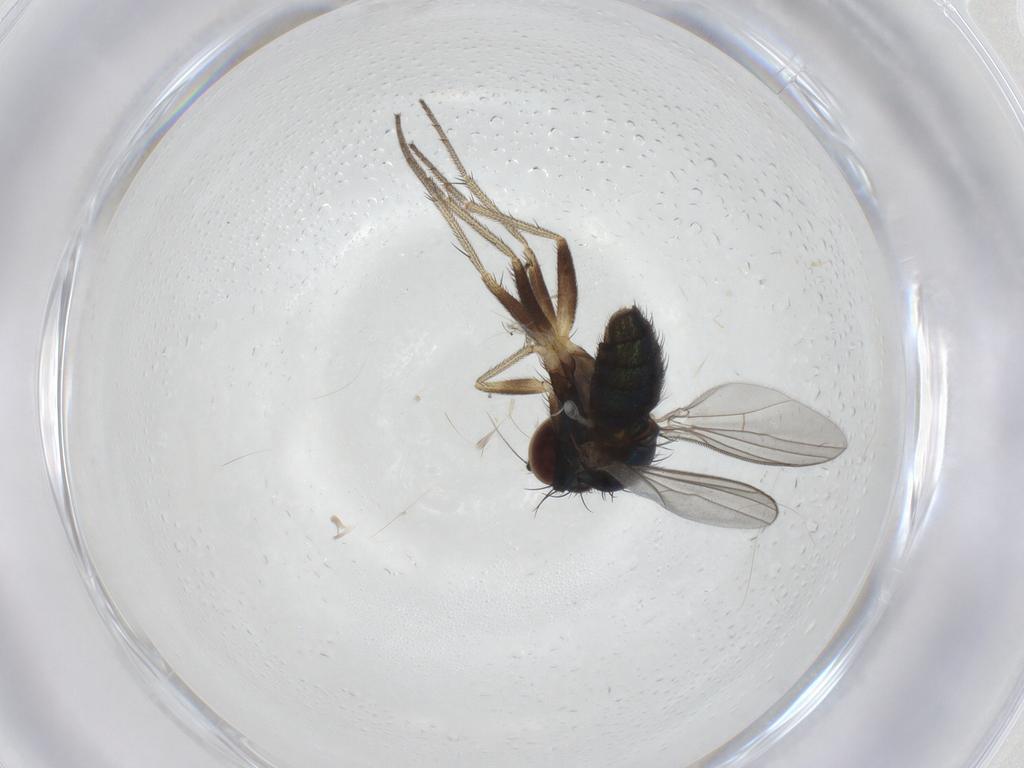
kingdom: Animalia
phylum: Arthropoda
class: Insecta
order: Diptera
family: Dolichopodidae
